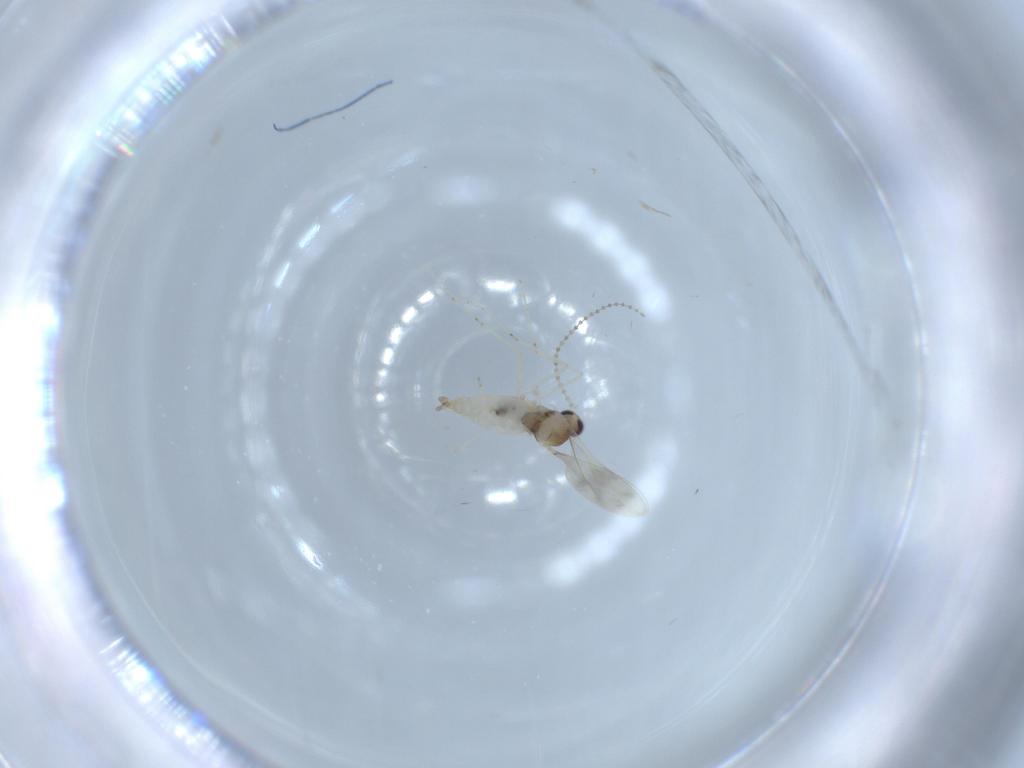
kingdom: Animalia
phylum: Arthropoda
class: Insecta
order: Diptera
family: Cecidomyiidae
